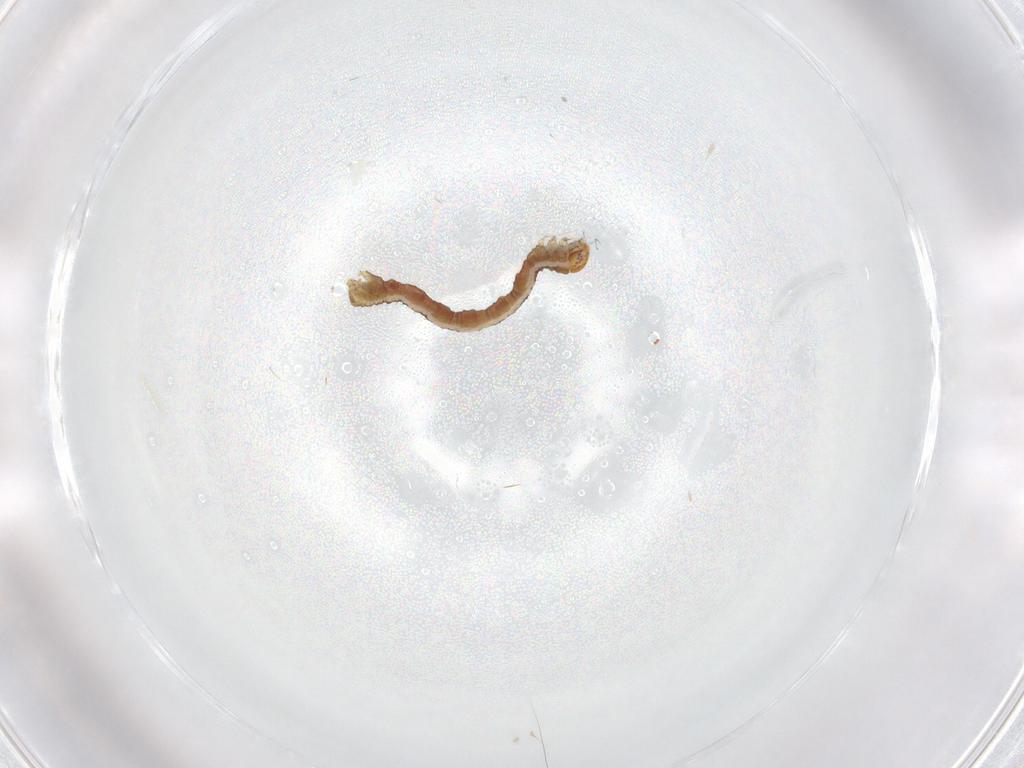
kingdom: Animalia
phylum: Arthropoda
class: Insecta
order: Lepidoptera
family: Geometridae
